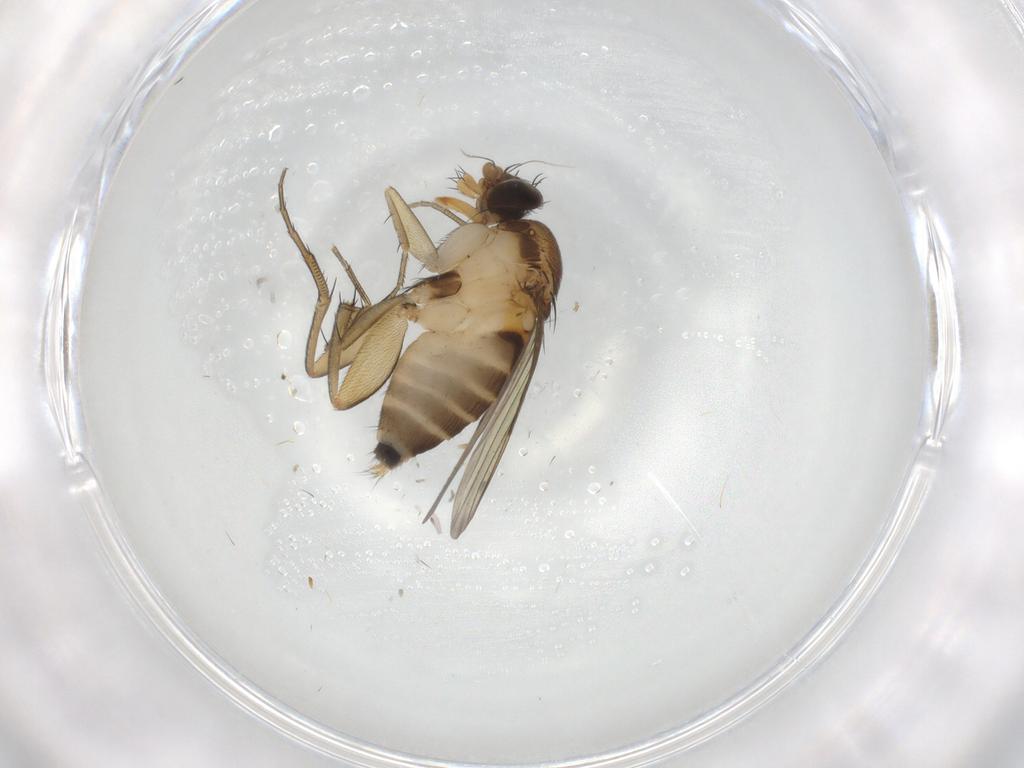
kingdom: Animalia
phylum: Arthropoda
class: Insecta
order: Diptera
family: Phoridae
